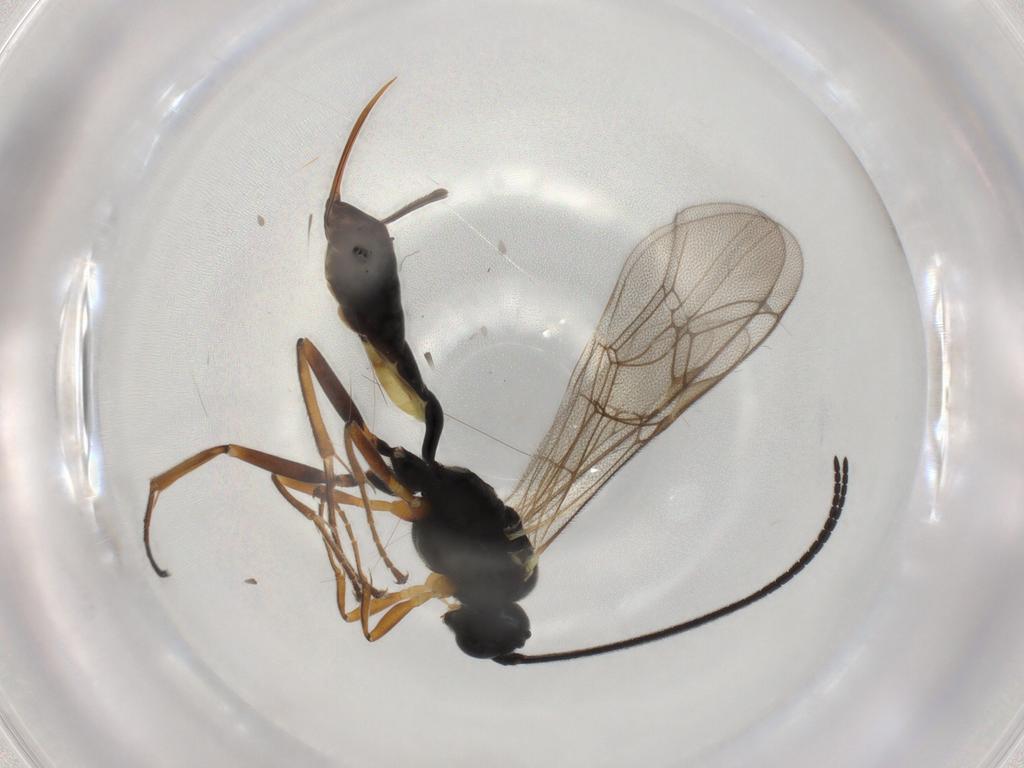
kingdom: Animalia
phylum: Arthropoda
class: Insecta
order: Hymenoptera
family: Ichneumonidae
